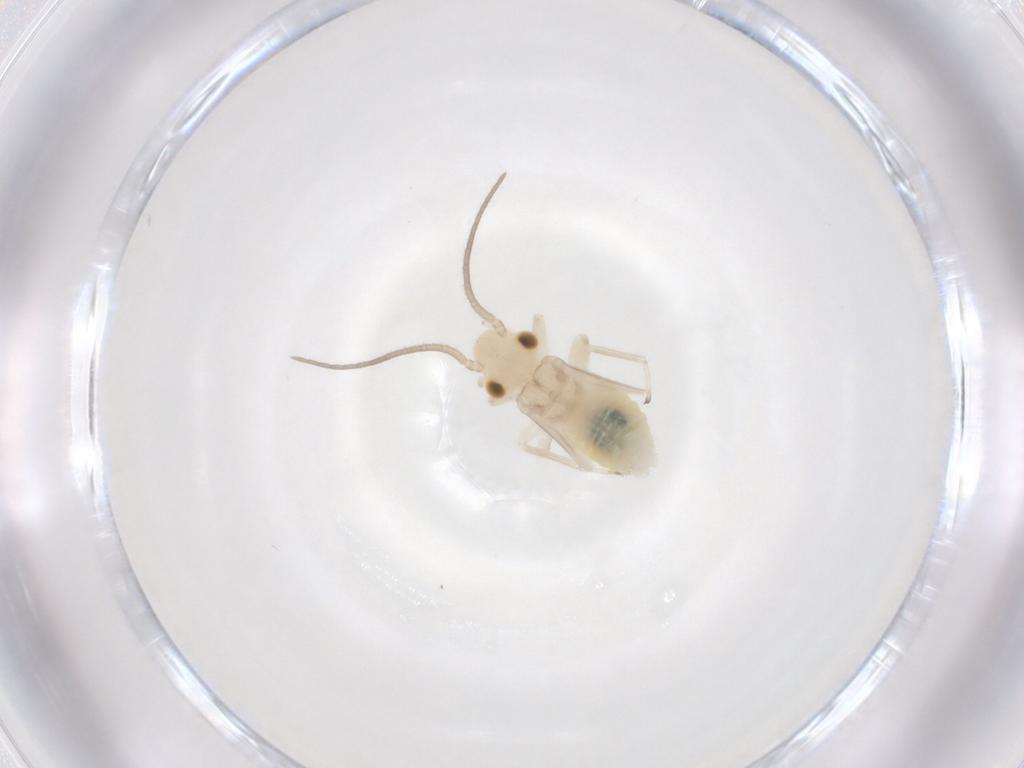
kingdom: Animalia
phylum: Arthropoda
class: Insecta
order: Psocodea
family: Caeciliusidae
